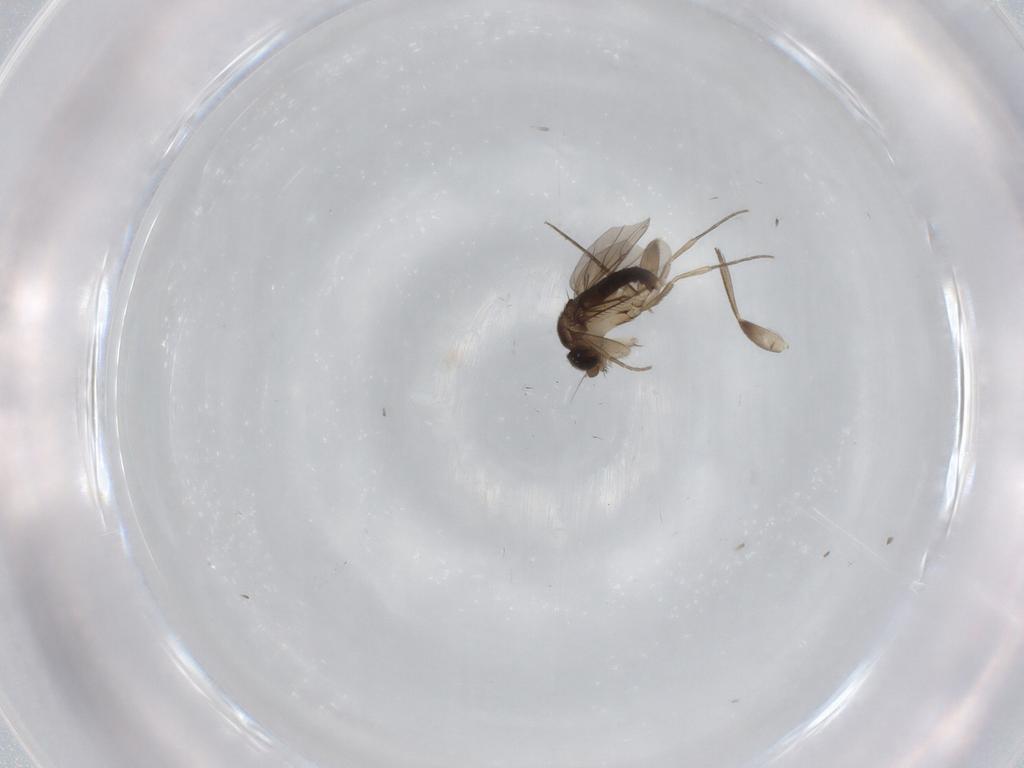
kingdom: Animalia
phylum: Arthropoda
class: Insecta
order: Diptera
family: Phoridae
